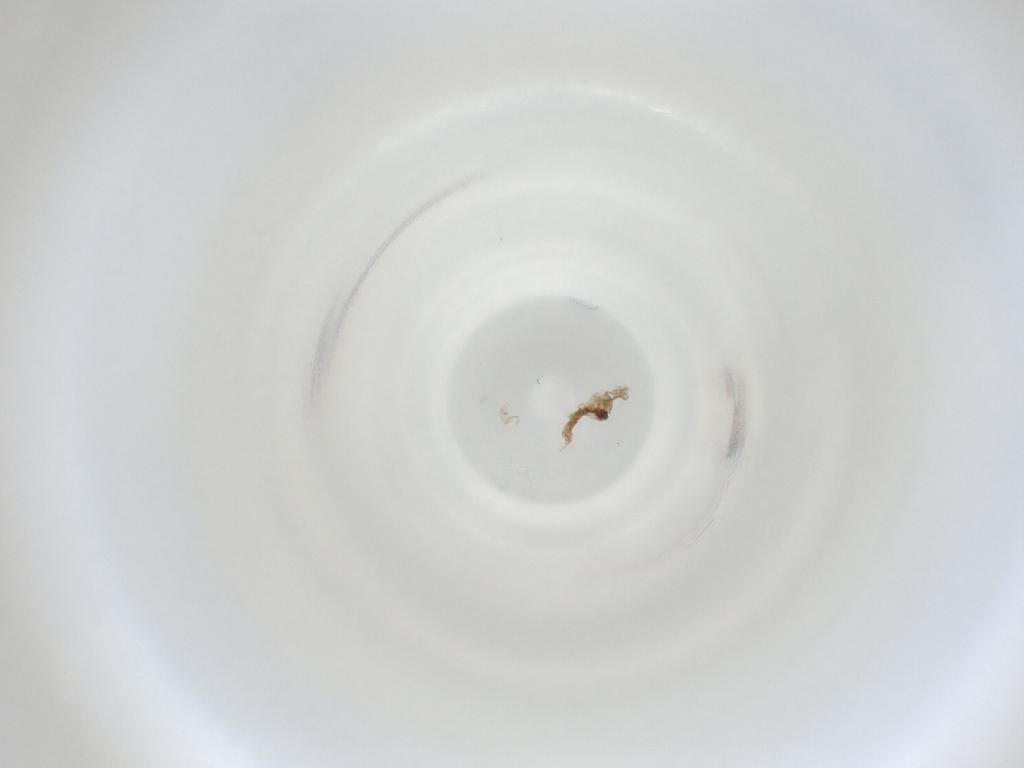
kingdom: Animalia
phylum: Arthropoda
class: Insecta
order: Diptera
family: Cecidomyiidae
